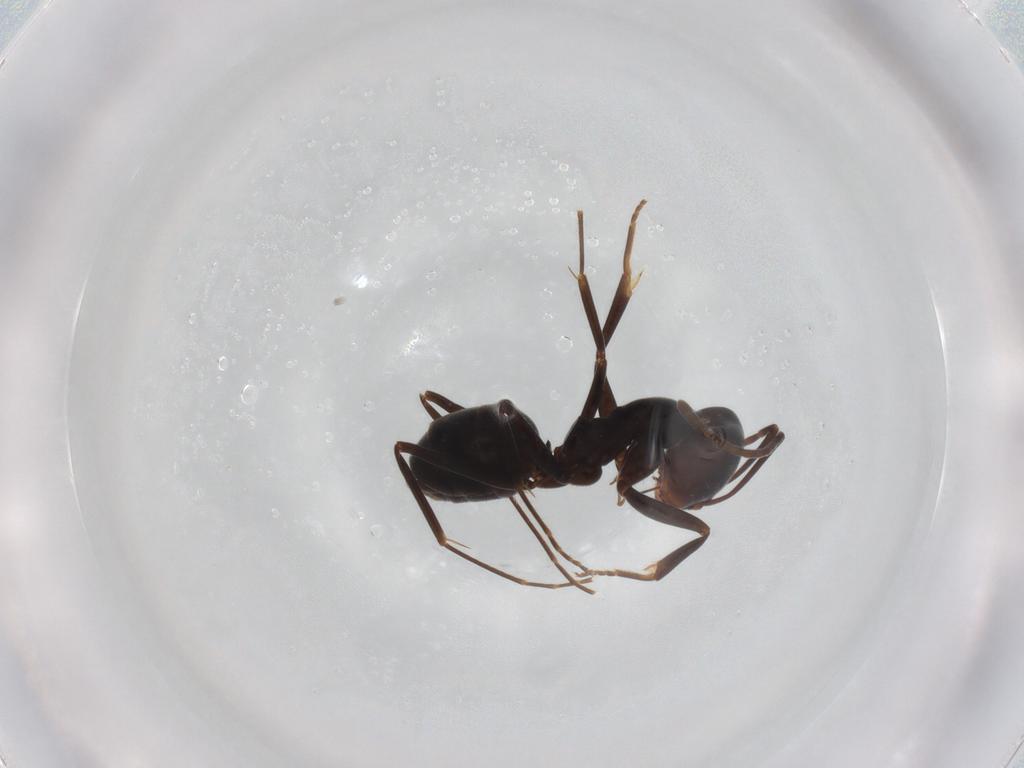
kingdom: Animalia
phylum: Arthropoda
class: Insecta
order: Hymenoptera
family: Formicidae
